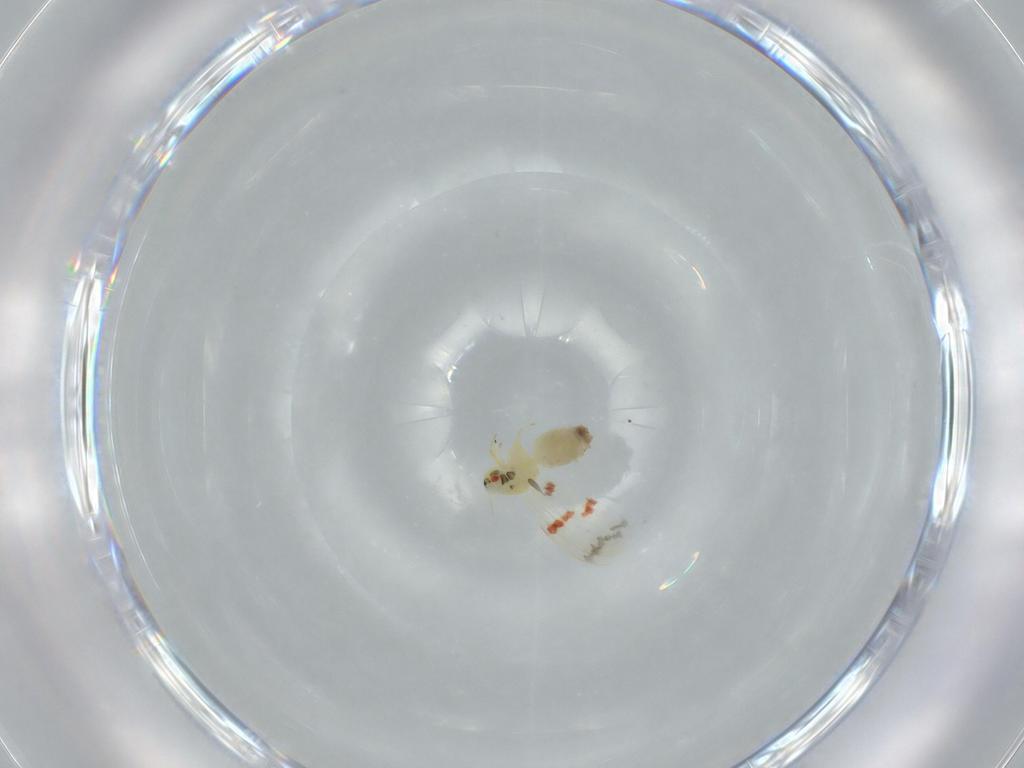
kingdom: Animalia
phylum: Arthropoda
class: Insecta
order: Hemiptera
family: Aleyrodidae
